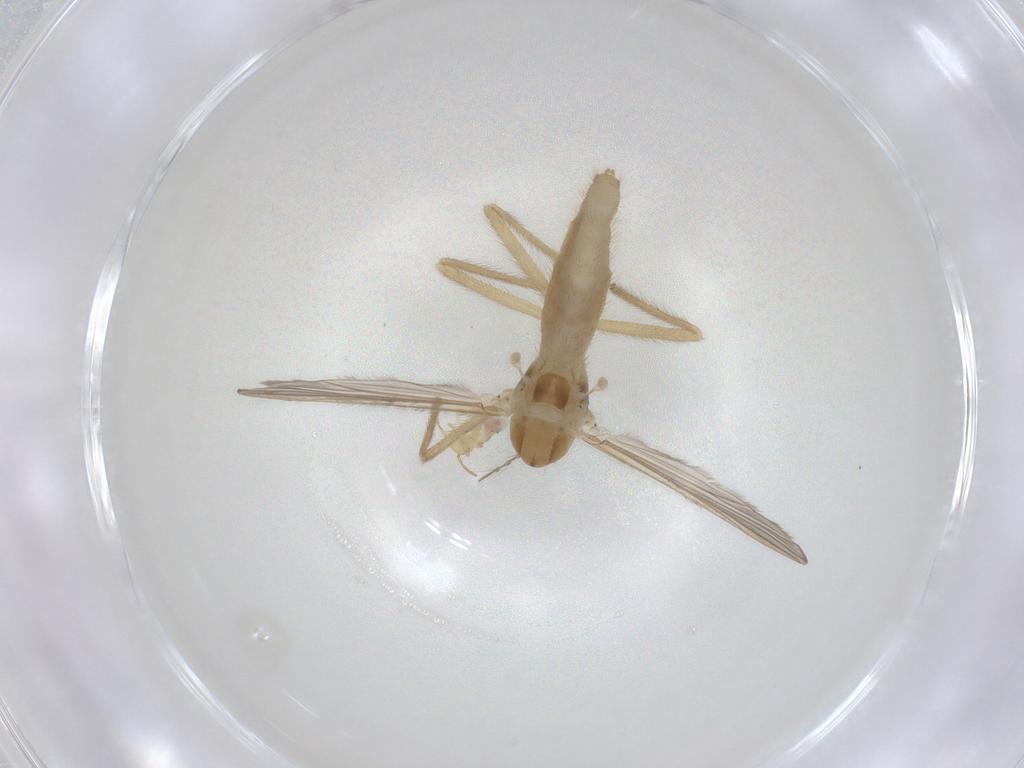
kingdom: Animalia
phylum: Arthropoda
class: Insecta
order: Diptera
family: Chironomidae
